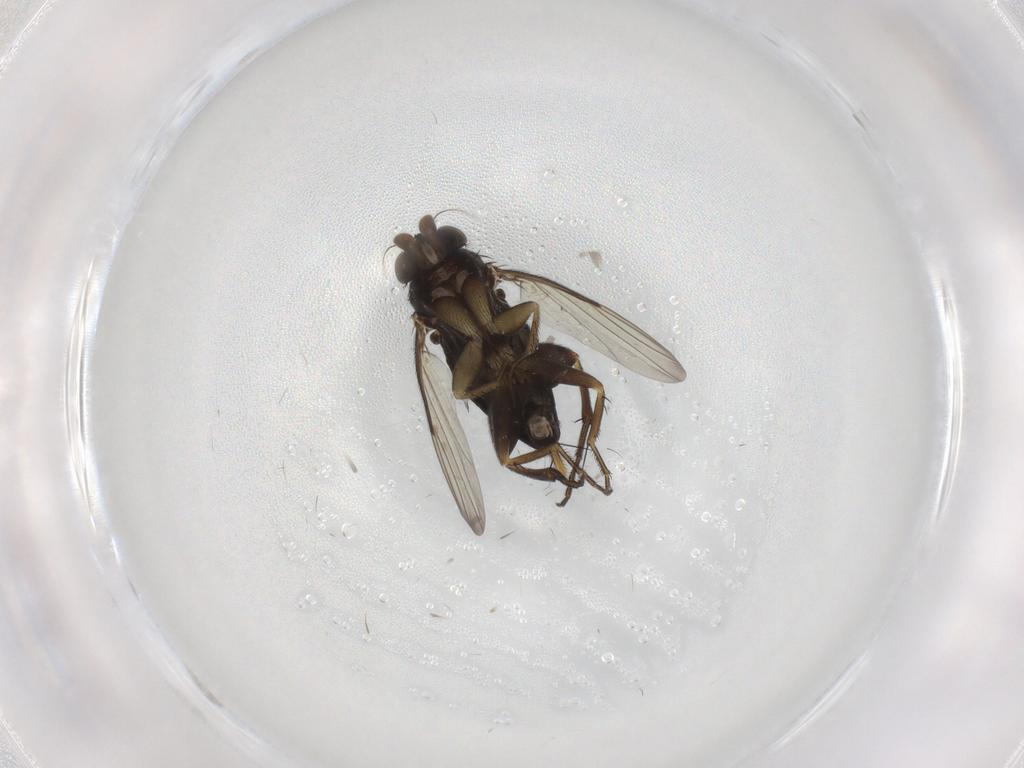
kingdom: Animalia
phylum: Arthropoda
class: Insecta
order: Diptera
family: Phoridae
